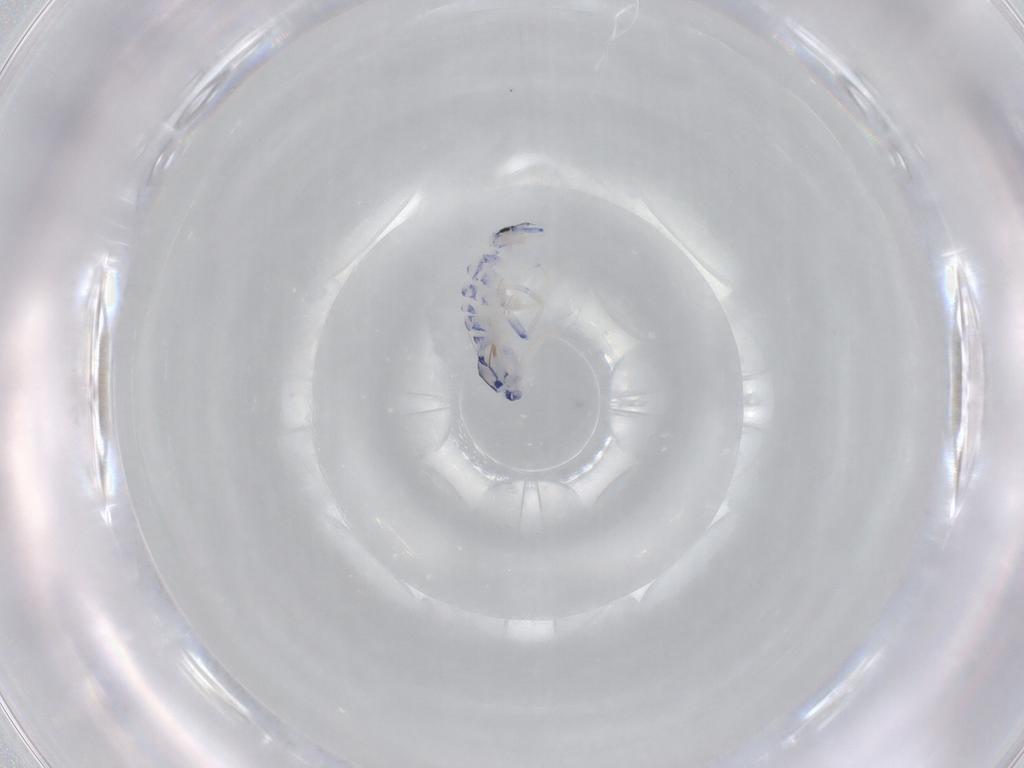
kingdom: Animalia
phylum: Arthropoda
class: Collembola
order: Entomobryomorpha
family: Entomobryidae
